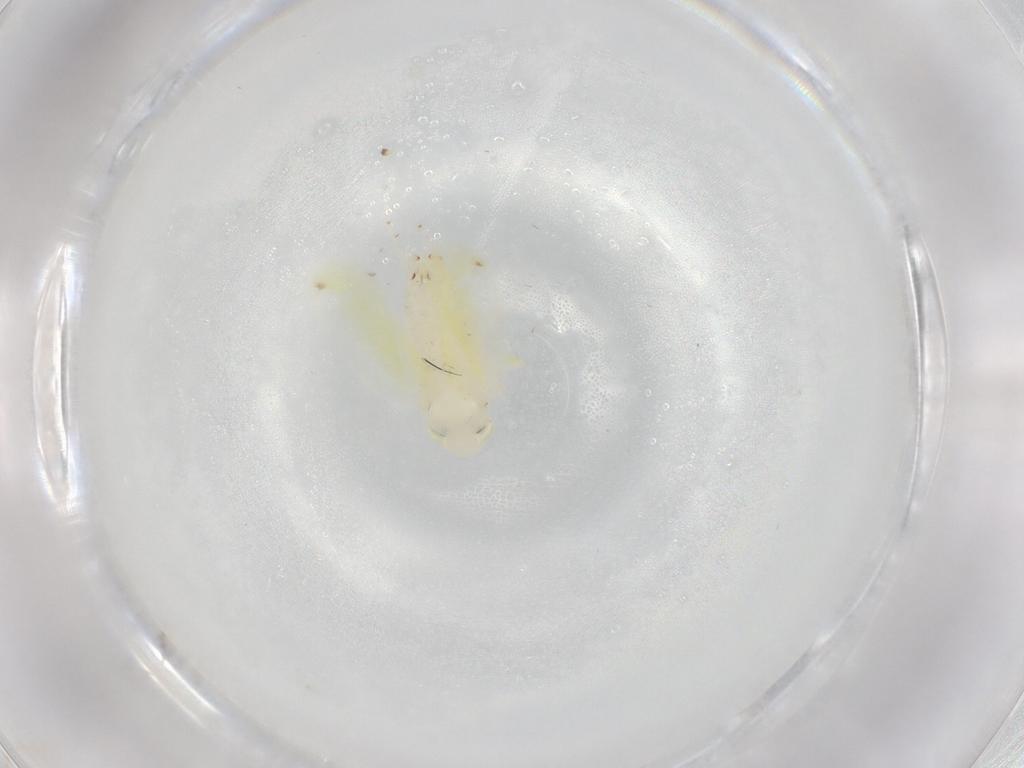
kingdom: Animalia
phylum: Arthropoda
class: Insecta
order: Hemiptera
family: Cicadellidae
